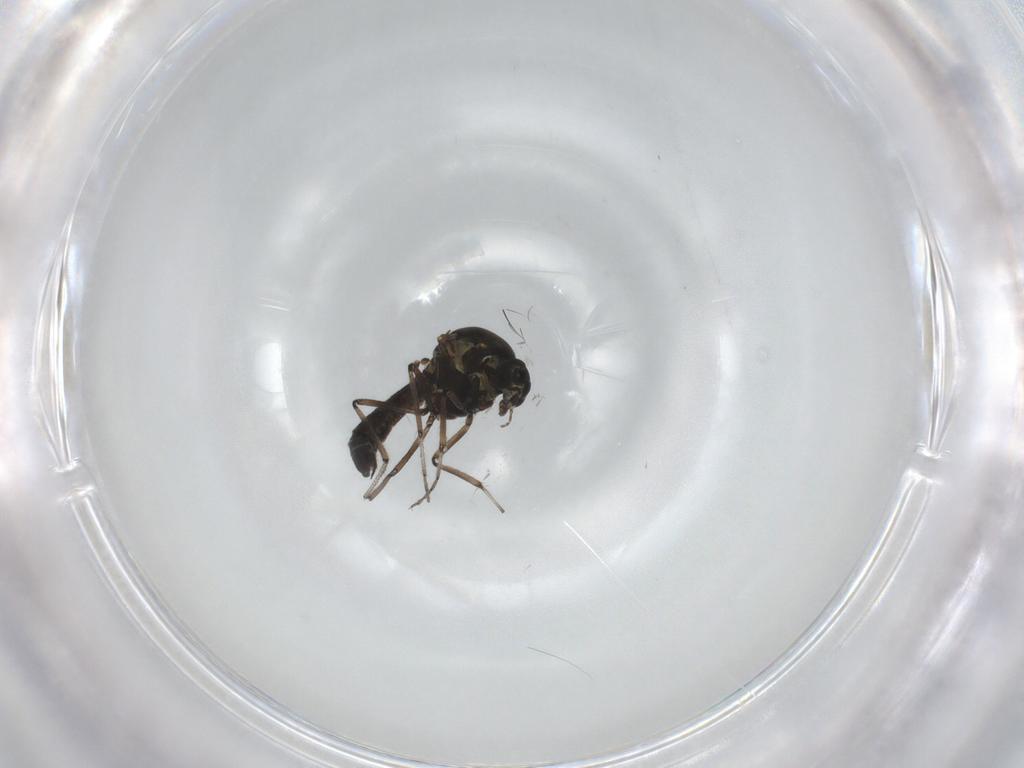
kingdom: Animalia
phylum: Arthropoda
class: Insecta
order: Diptera
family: Ceratopogonidae
